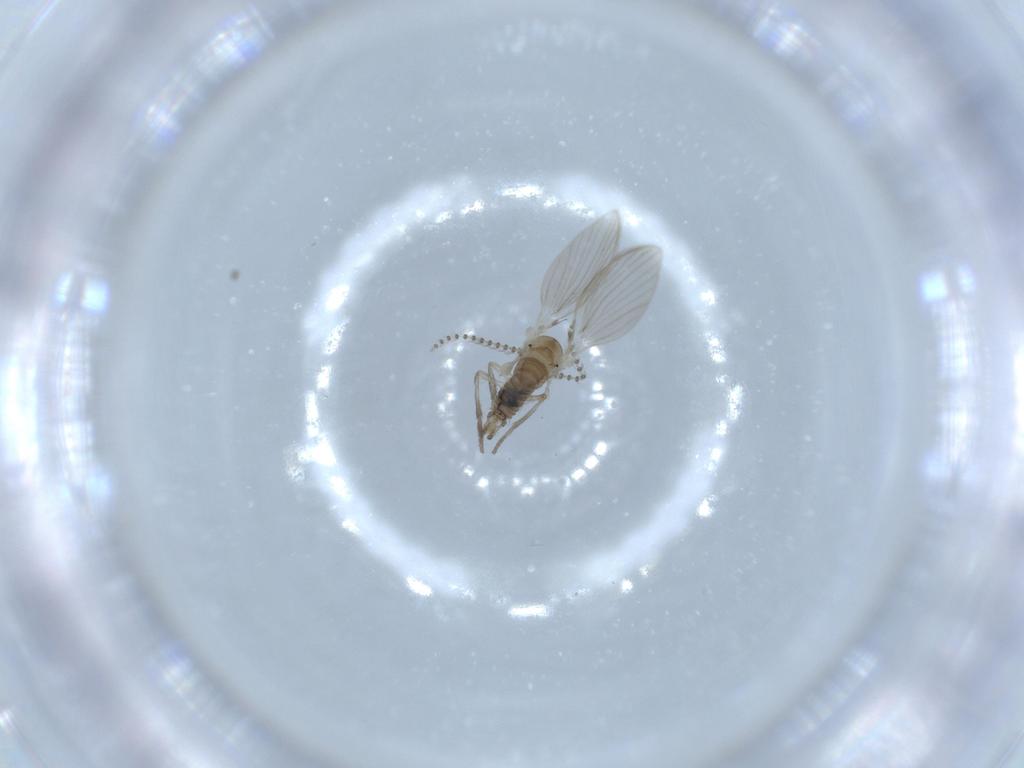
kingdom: Animalia
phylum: Arthropoda
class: Insecta
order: Diptera
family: Psychodidae
